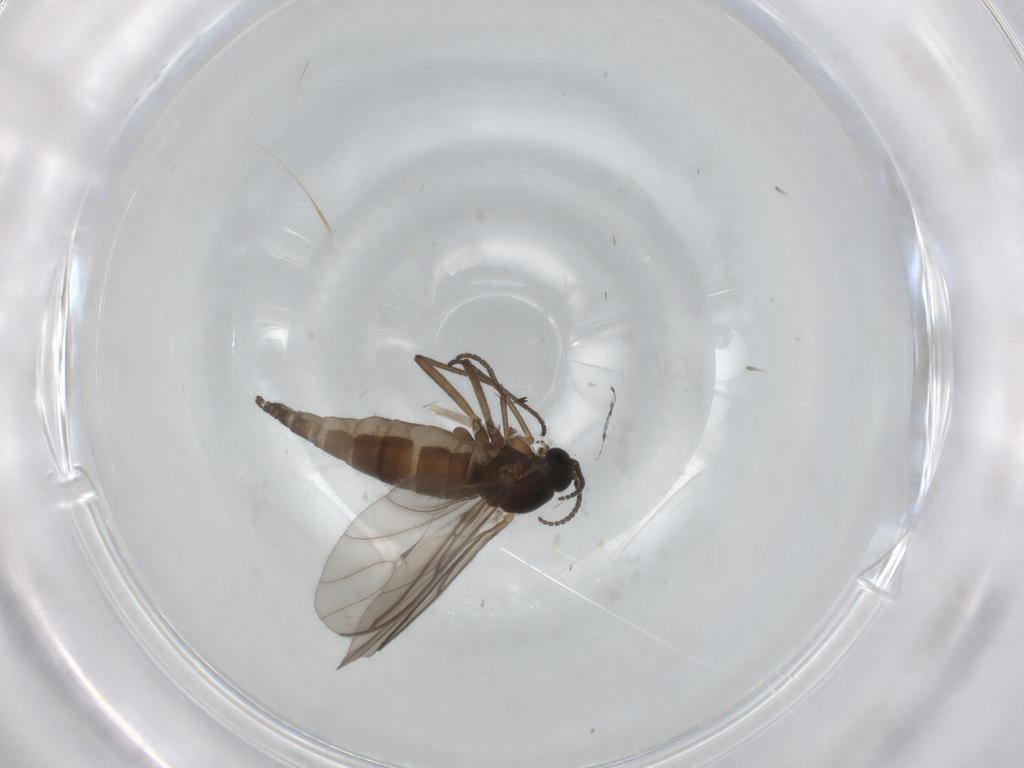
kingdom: Animalia
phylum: Arthropoda
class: Insecta
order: Diptera
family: Sciaridae
